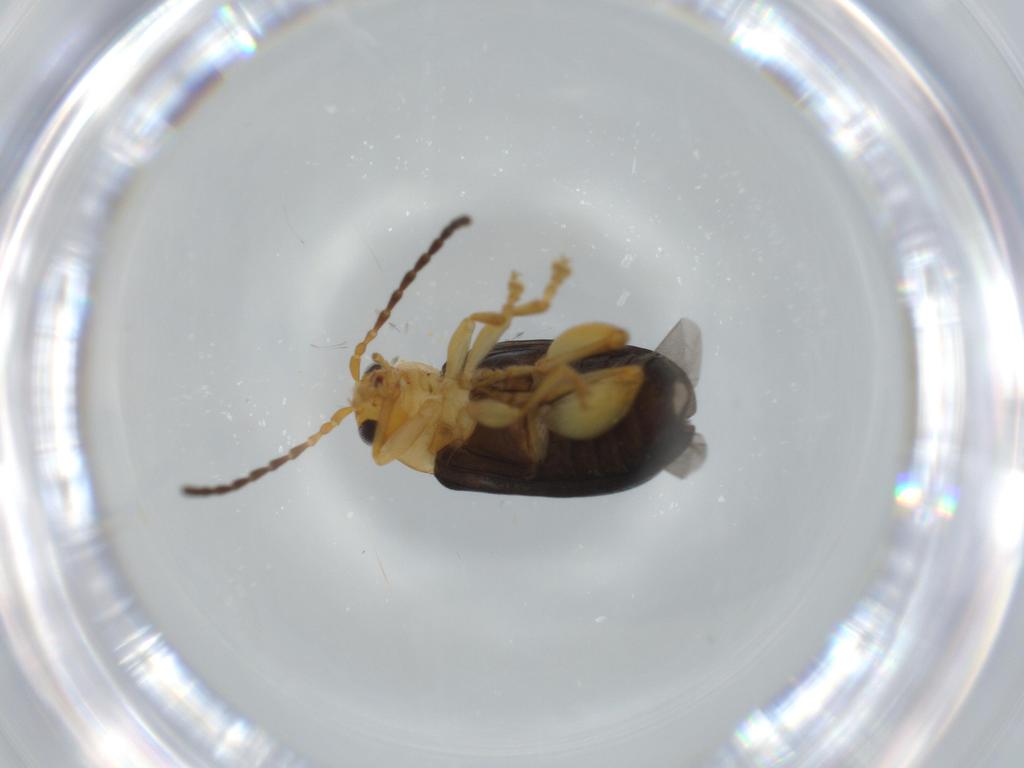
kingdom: Animalia
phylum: Arthropoda
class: Insecta
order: Coleoptera
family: Chrysomelidae
